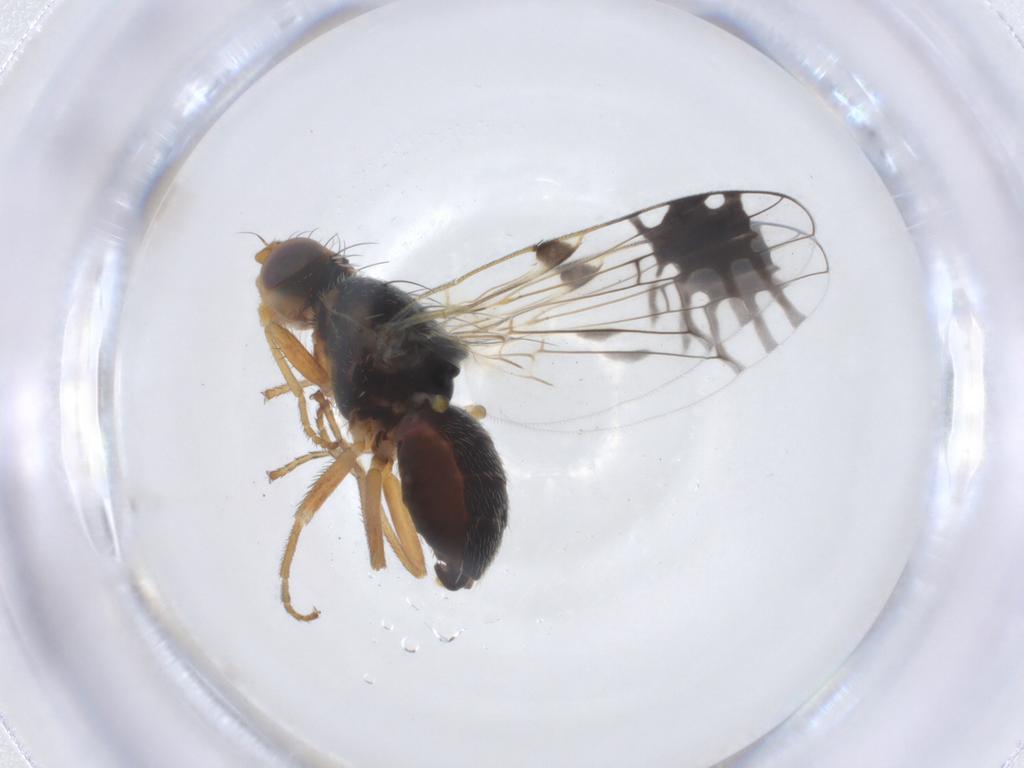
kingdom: Animalia
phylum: Arthropoda
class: Insecta
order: Diptera
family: Tephritidae
